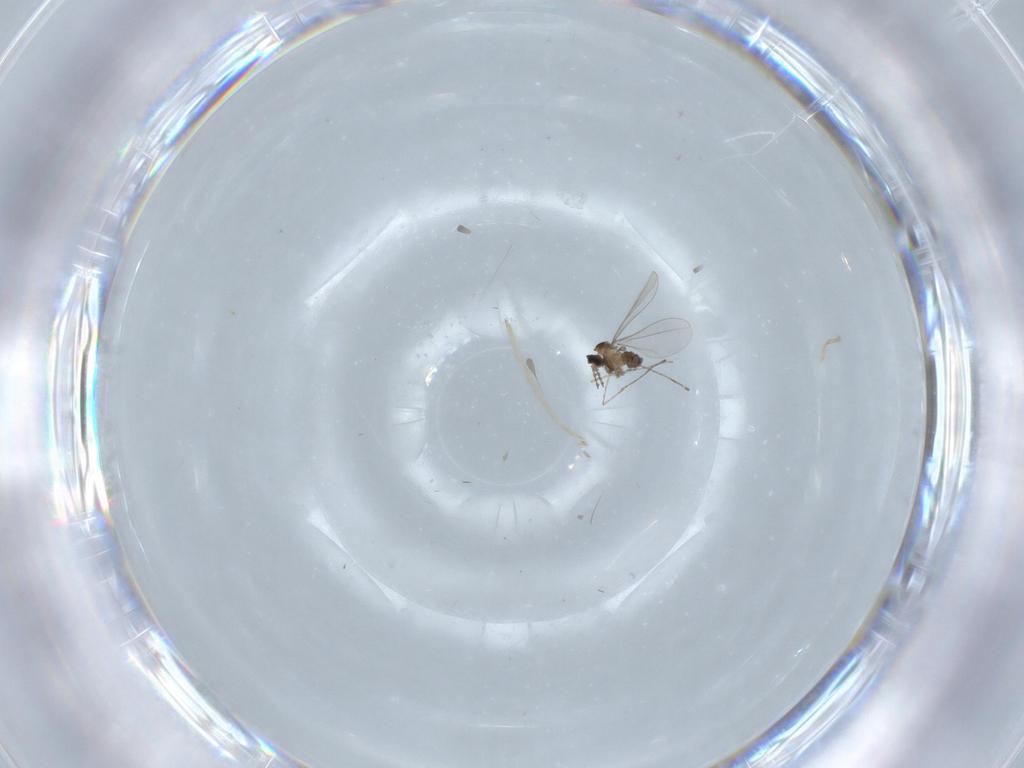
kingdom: Animalia
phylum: Arthropoda
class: Insecta
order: Diptera
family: Cecidomyiidae
